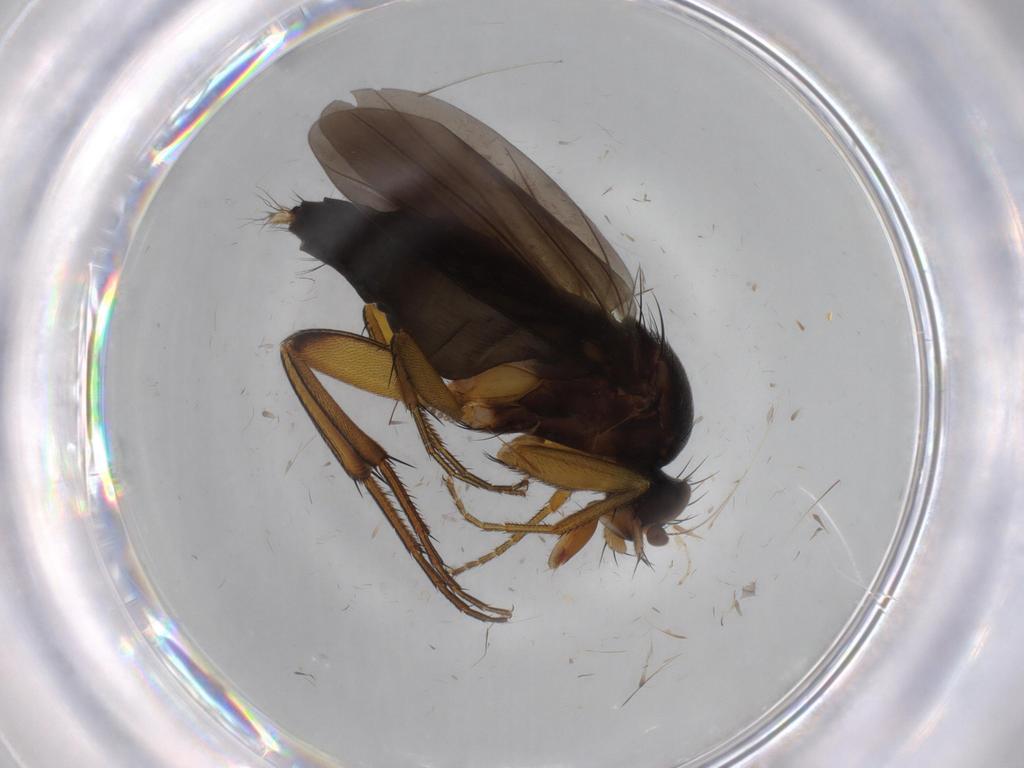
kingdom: Animalia
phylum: Arthropoda
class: Insecta
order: Diptera
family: Phoridae
